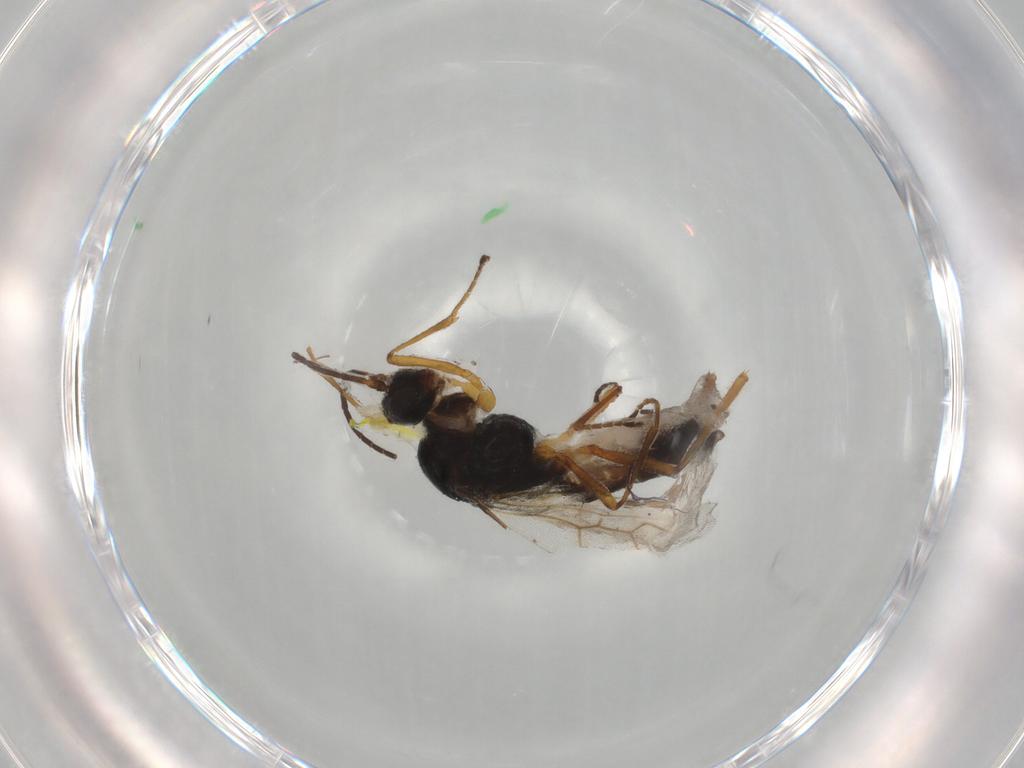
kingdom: Animalia
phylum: Arthropoda
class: Insecta
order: Hymenoptera
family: Braconidae
